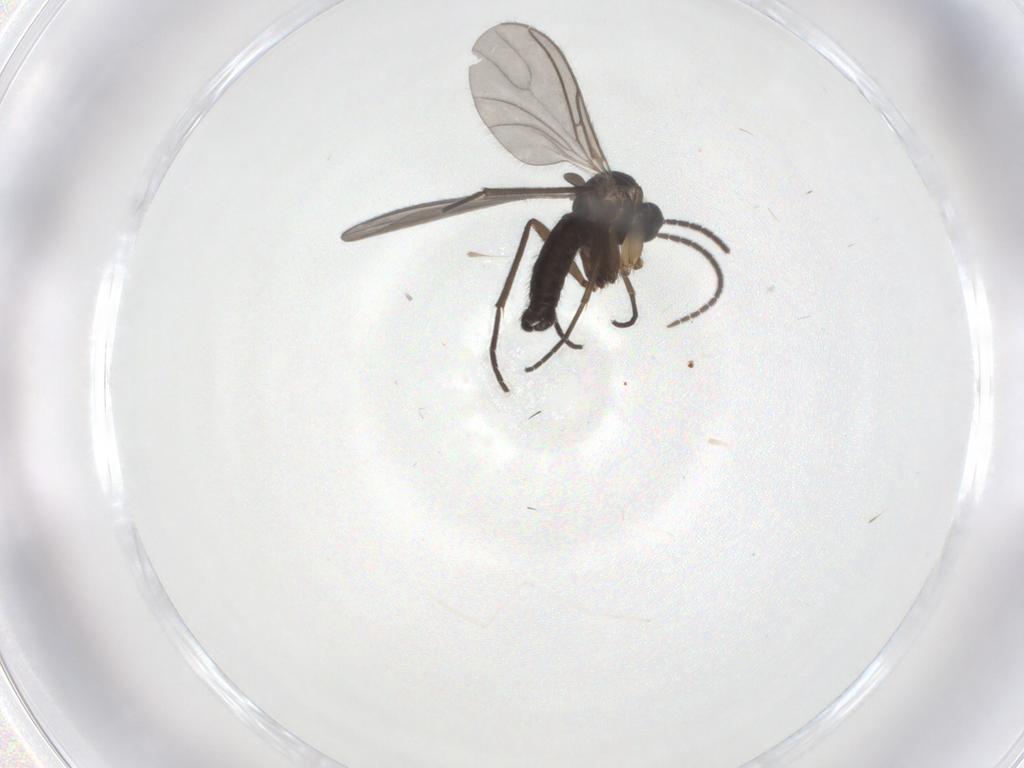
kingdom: Animalia
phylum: Arthropoda
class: Insecta
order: Diptera
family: Sciaridae
